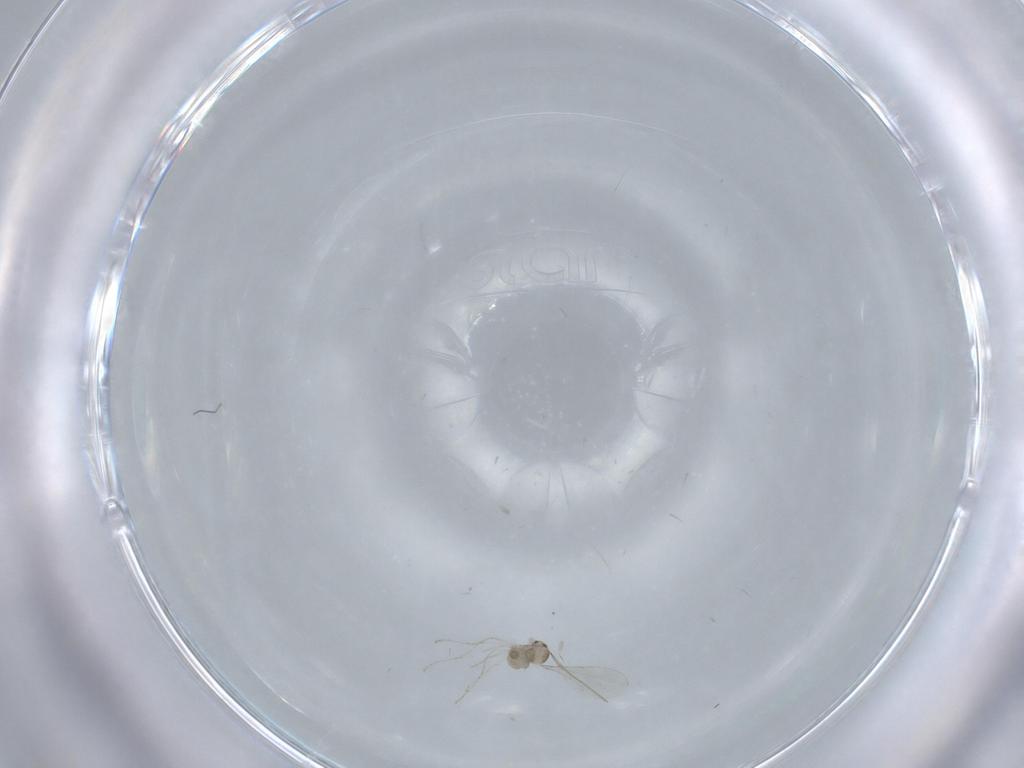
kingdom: Animalia
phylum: Arthropoda
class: Insecta
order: Diptera
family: Cecidomyiidae
